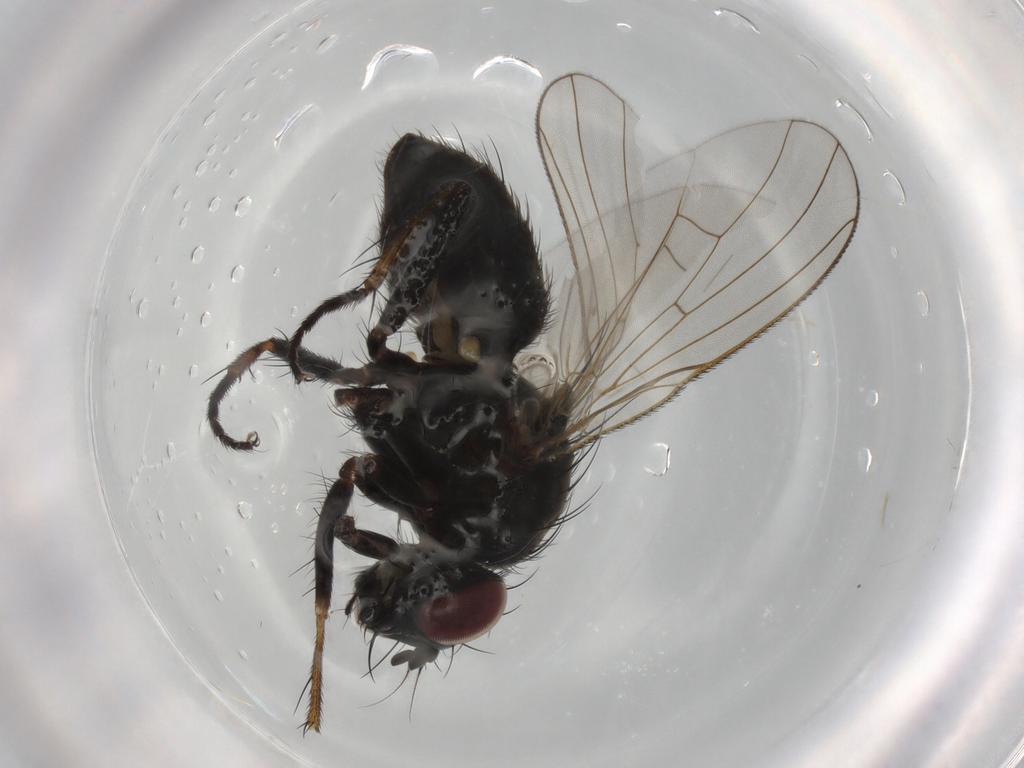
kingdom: Animalia
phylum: Arthropoda
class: Insecta
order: Diptera
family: Muscidae
